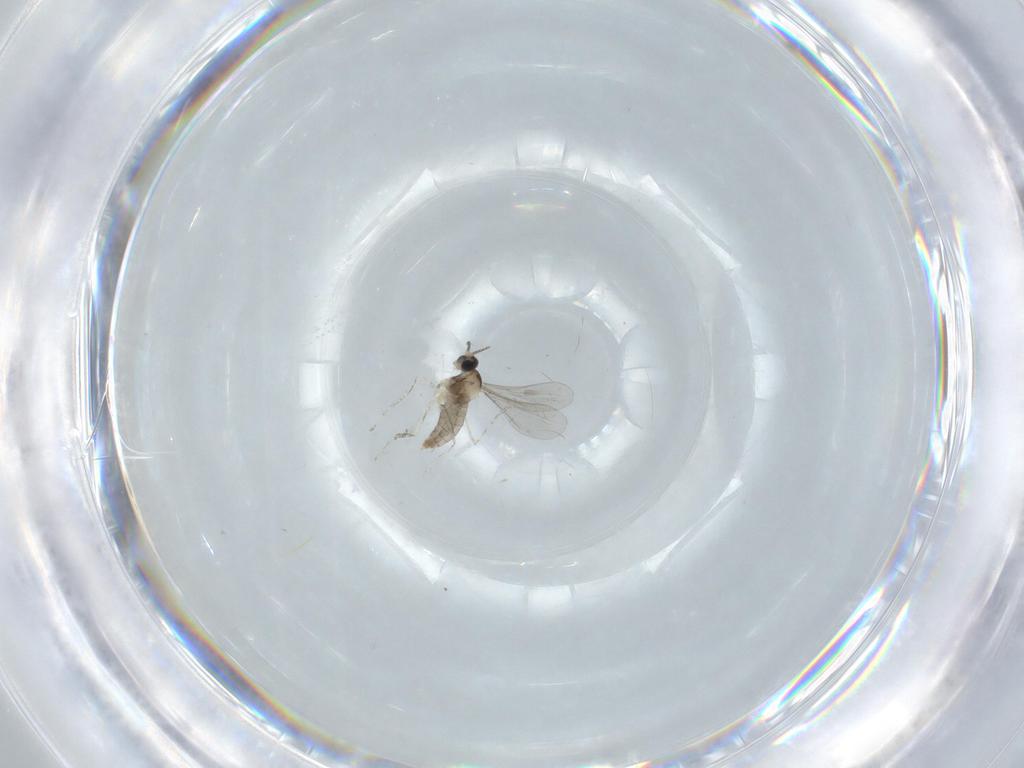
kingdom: Animalia
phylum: Arthropoda
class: Insecta
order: Diptera
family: Cecidomyiidae
